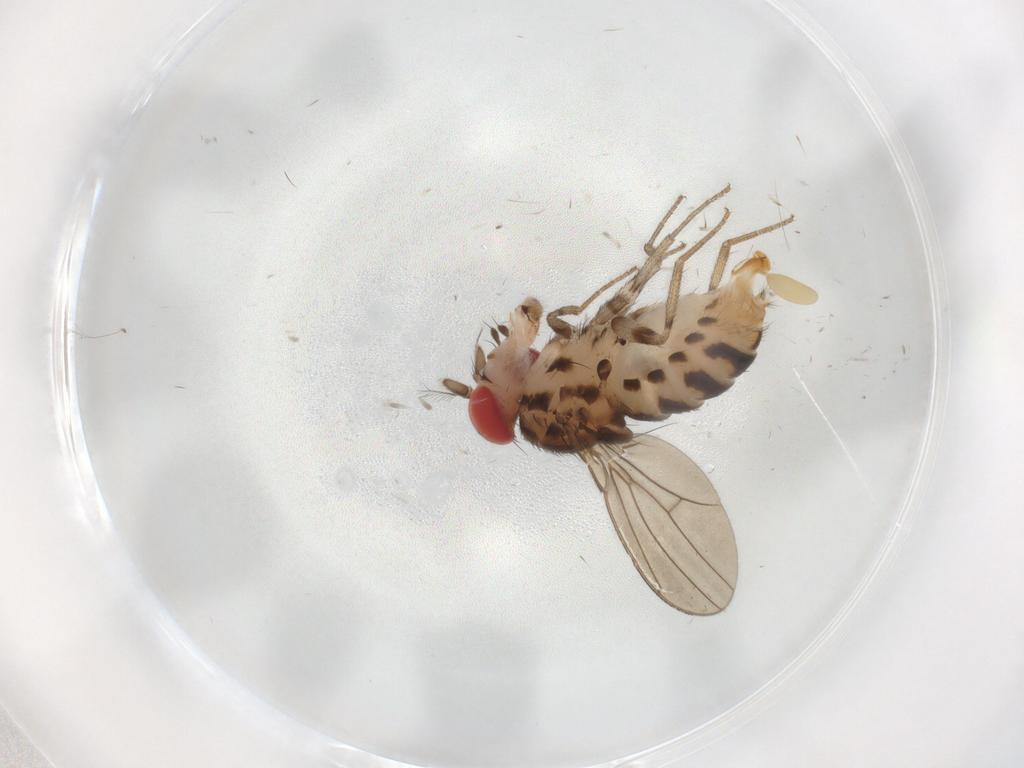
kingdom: Animalia
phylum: Arthropoda
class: Insecta
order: Diptera
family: Drosophilidae
